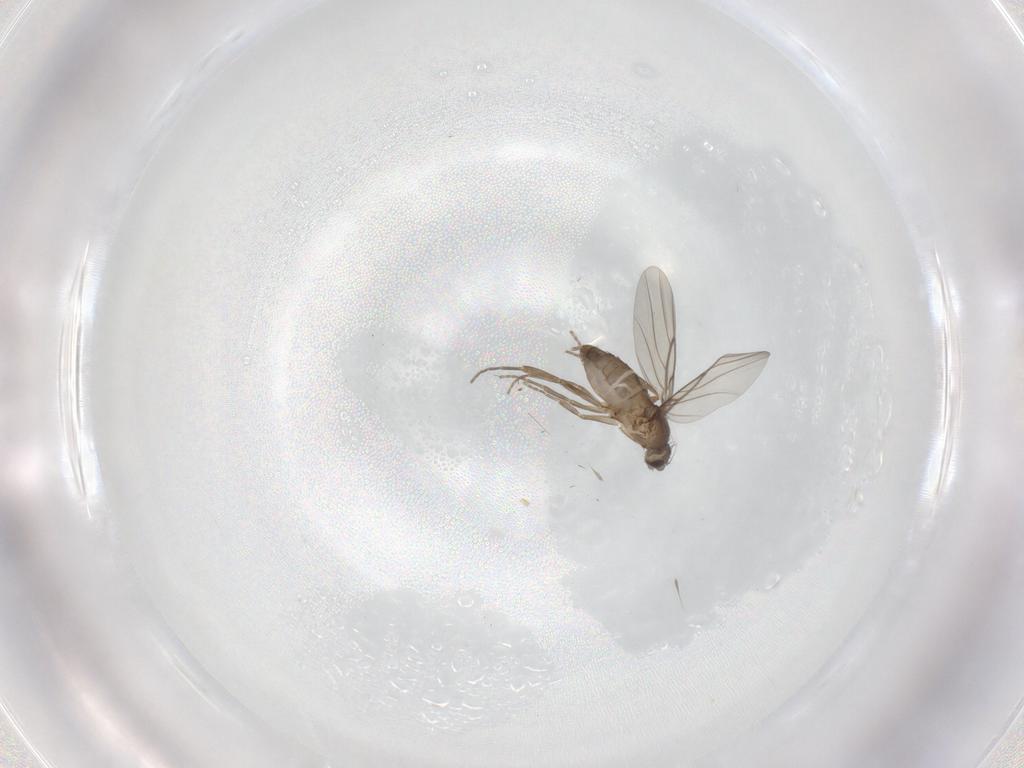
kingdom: Animalia
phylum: Arthropoda
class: Insecta
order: Diptera
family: Phoridae
